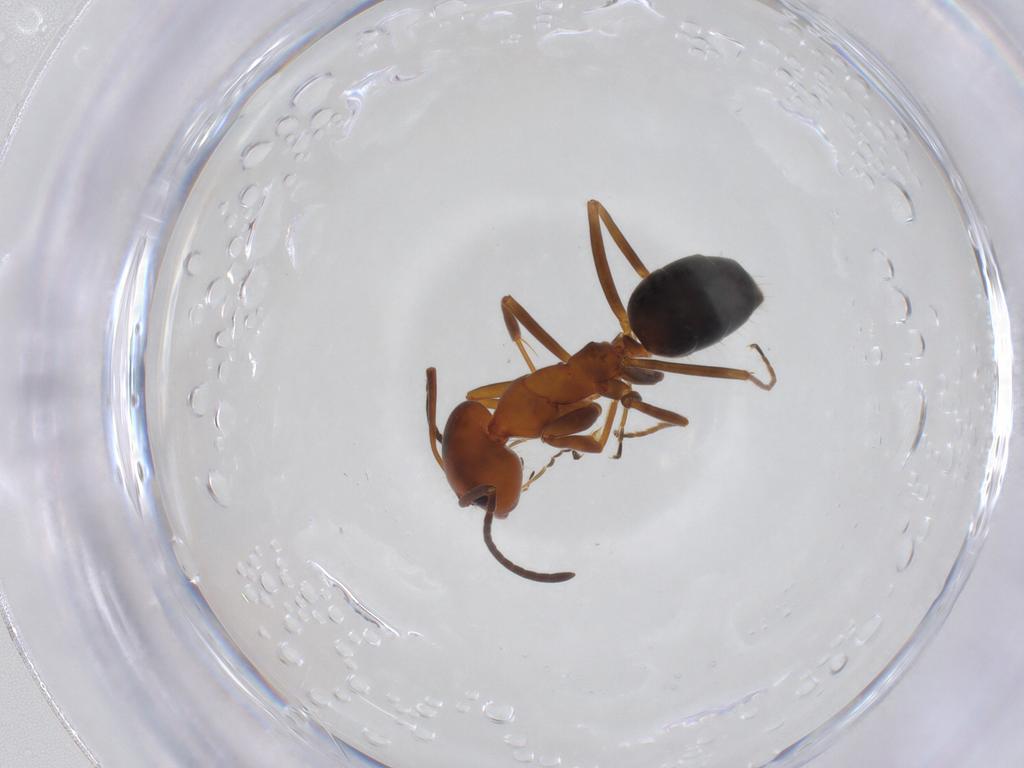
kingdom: Animalia
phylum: Arthropoda
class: Insecta
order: Hymenoptera
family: Formicidae
